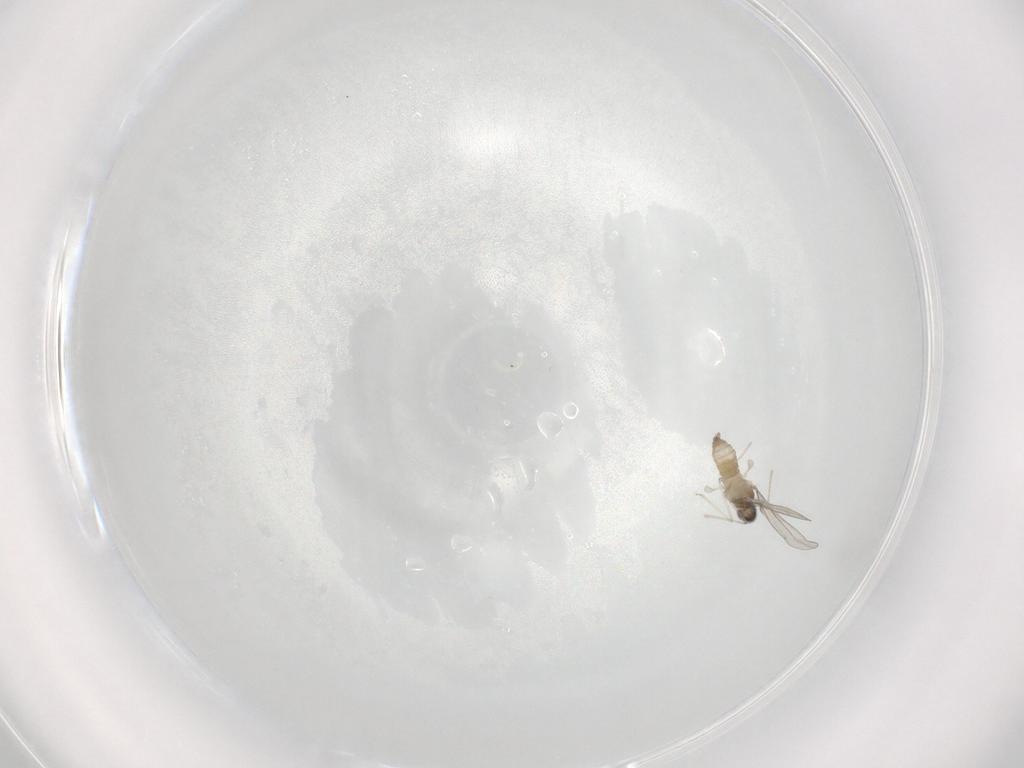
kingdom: Animalia
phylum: Arthropoda
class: Insecta
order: Diptera
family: Cecidomyiidae
